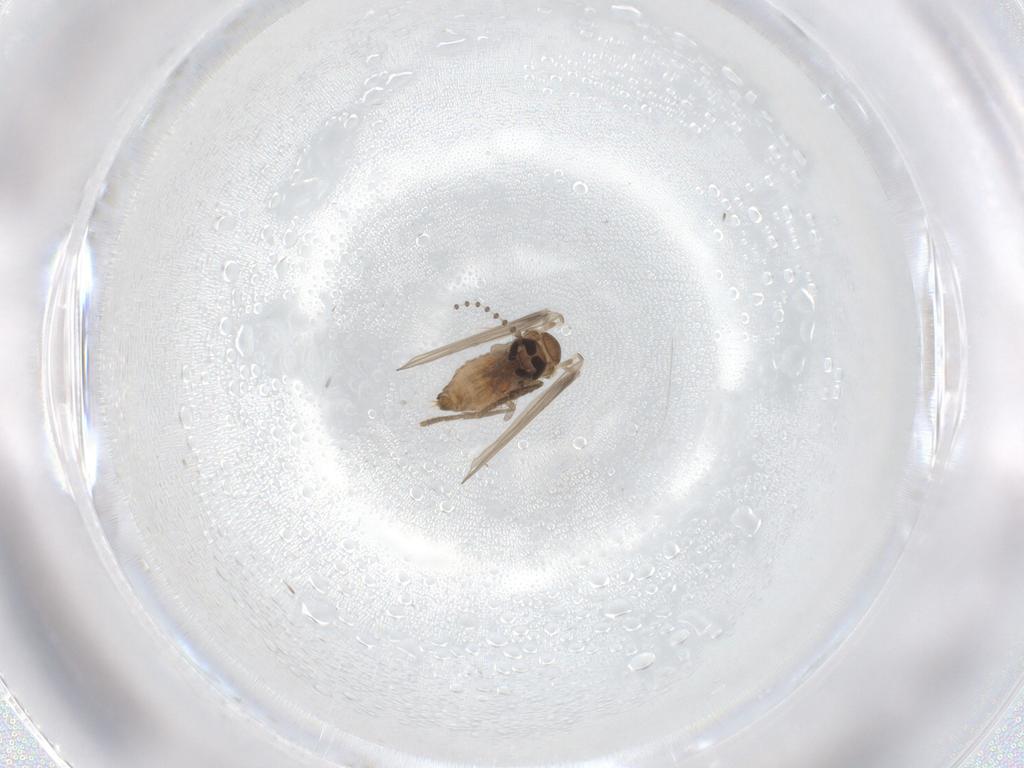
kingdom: Animalia
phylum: Arthropoda
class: Insecta
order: Diptera
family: Psychodidae
